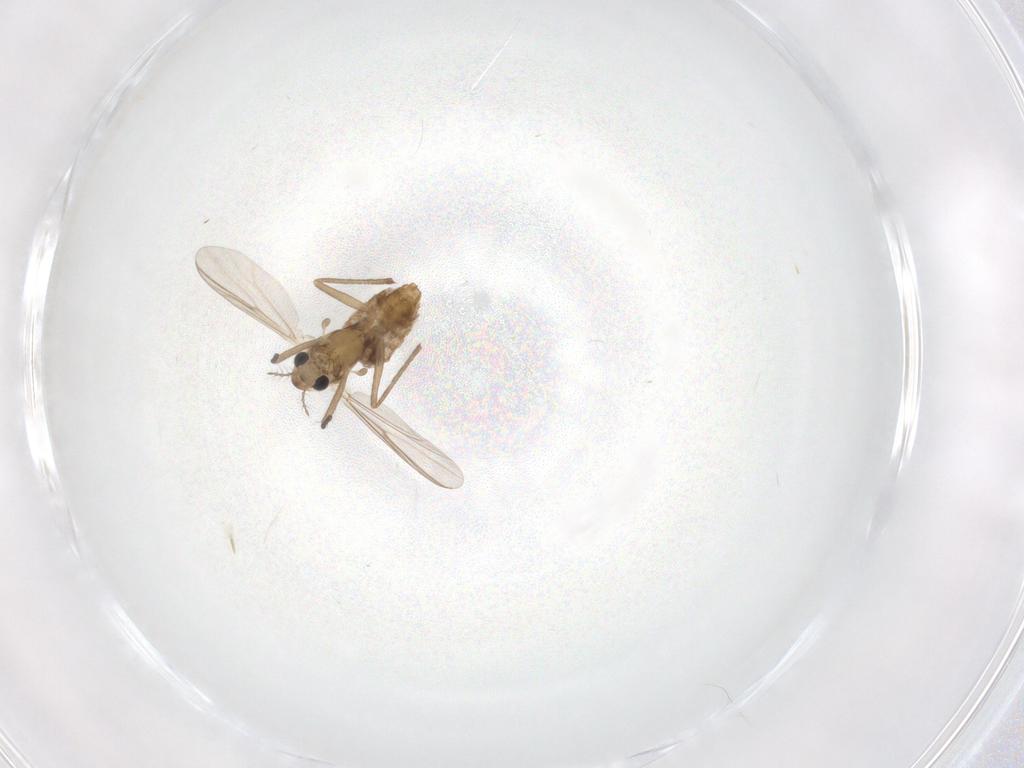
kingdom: Animalia
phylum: Arthropoda
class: Insecta
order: Diptera
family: Chironomidae
